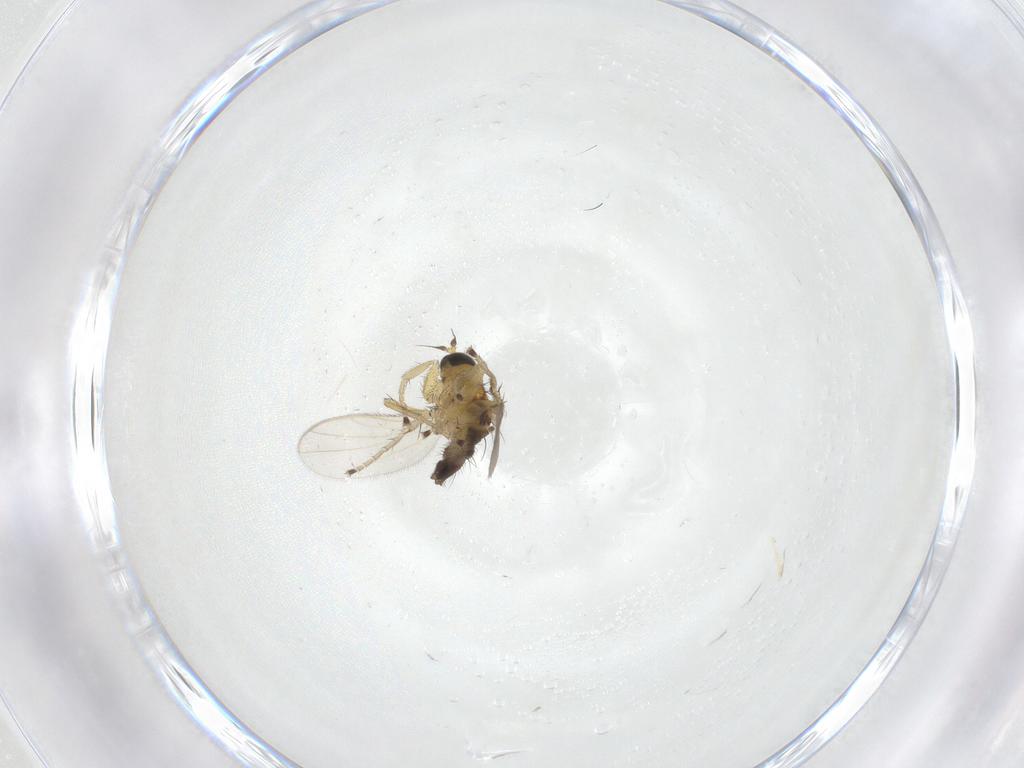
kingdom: Animalia
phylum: Arthropoda
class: Insecta
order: Diptera
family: Hybotidae
